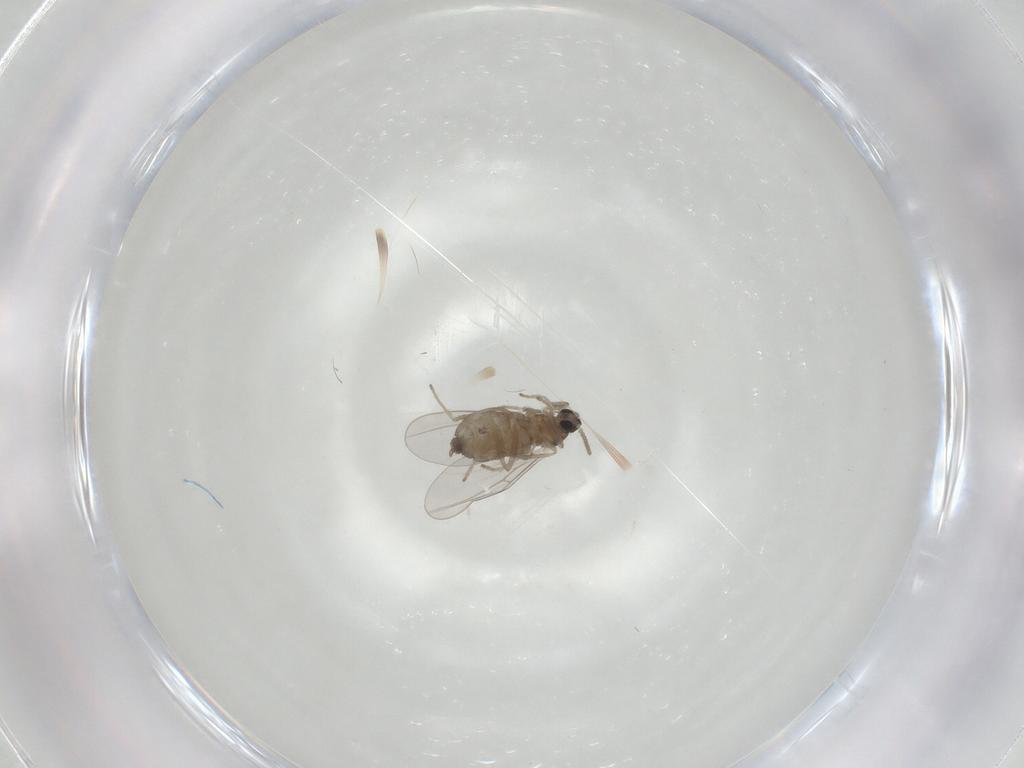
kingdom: Animalia
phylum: Arthropoda
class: Insecta
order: Diptera
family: Cecidomyiidae
